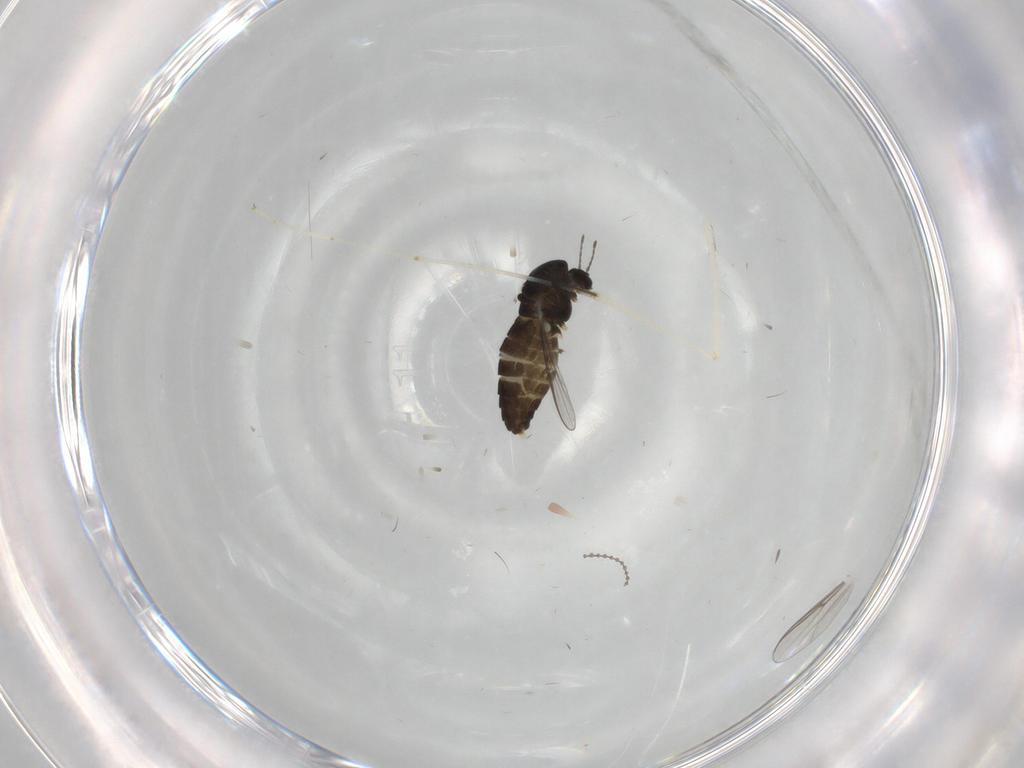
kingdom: Animalia
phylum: Arthropoda
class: Insecta
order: Diptera
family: Chironomidae
